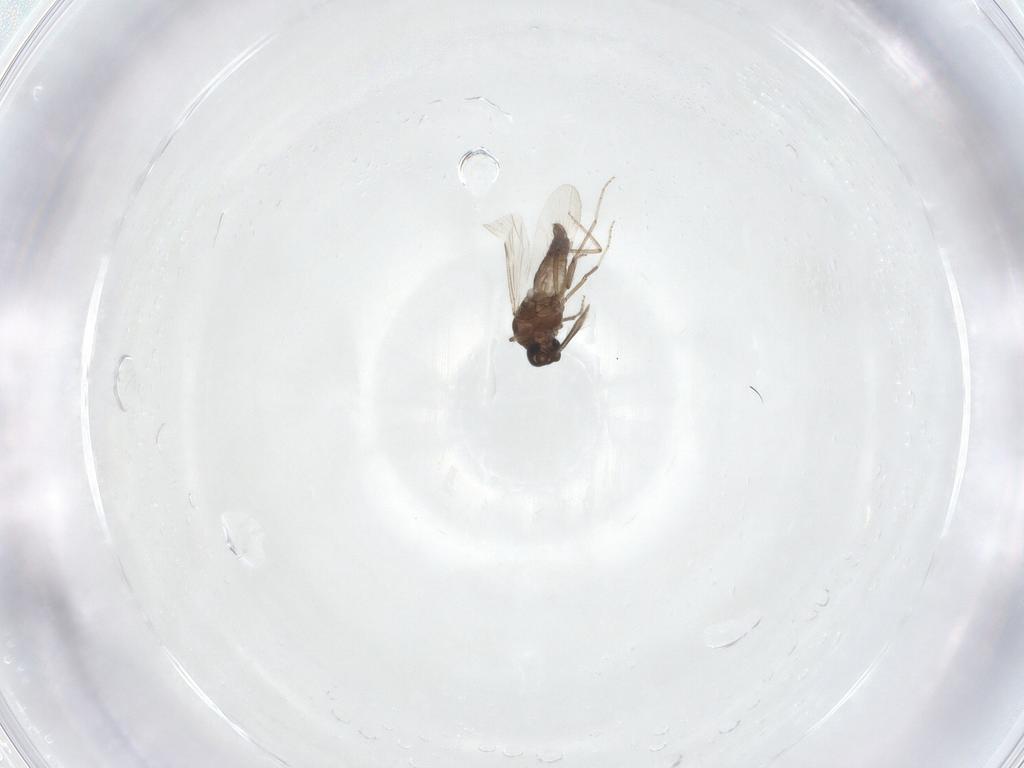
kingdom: Animalia
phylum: Arthropoda
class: Insecta
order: Diptera
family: Ceratopogonidae
